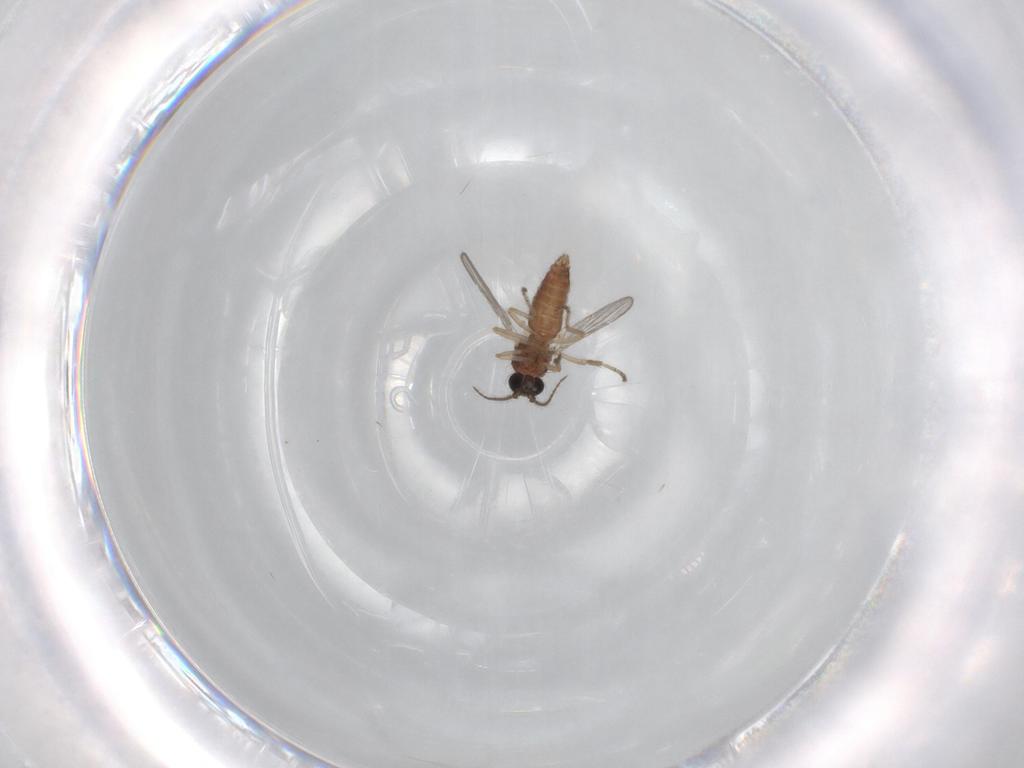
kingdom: Animalia
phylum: Arthropoda
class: Insecta
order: Diptera
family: Ceratopogonidae
